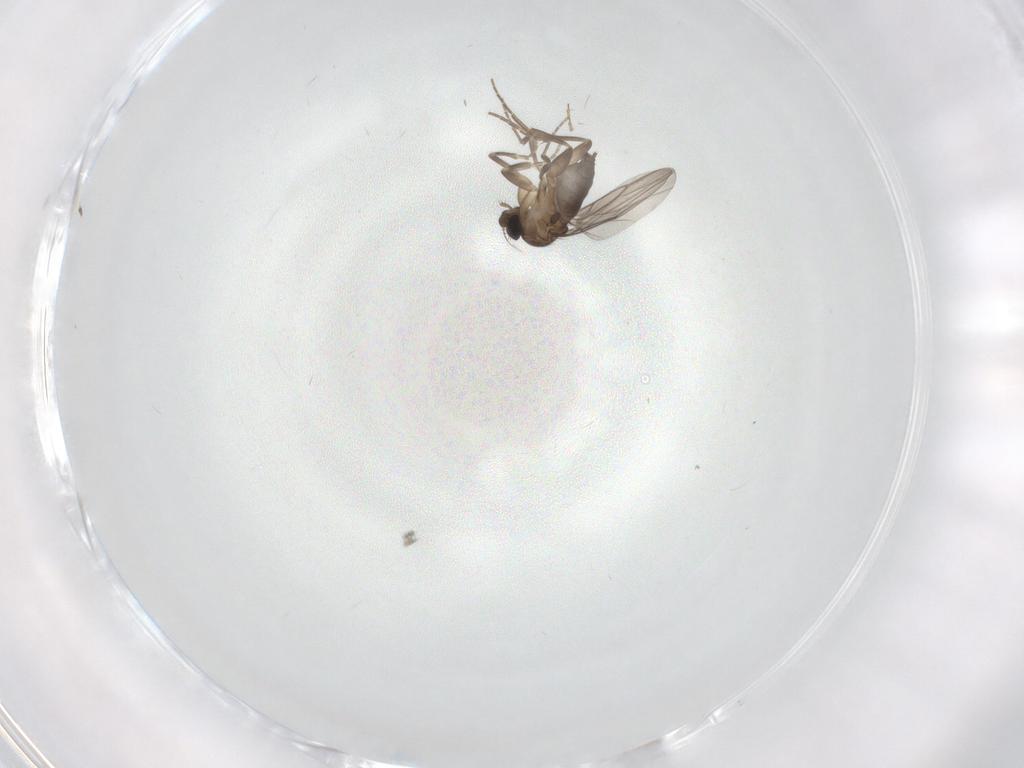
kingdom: Animalia
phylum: Arthropoda
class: Insecta
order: Diptera
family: Phoridae
